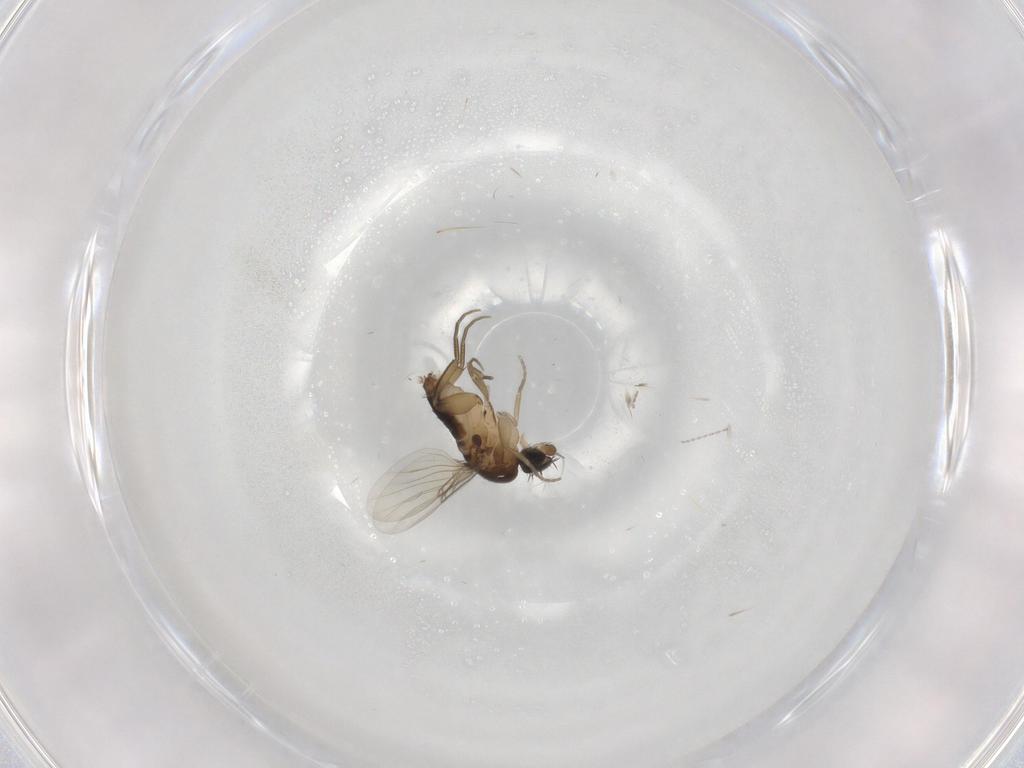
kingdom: Animalia
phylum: Arthropoda
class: Insecta
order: Diptera
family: Phoridae
